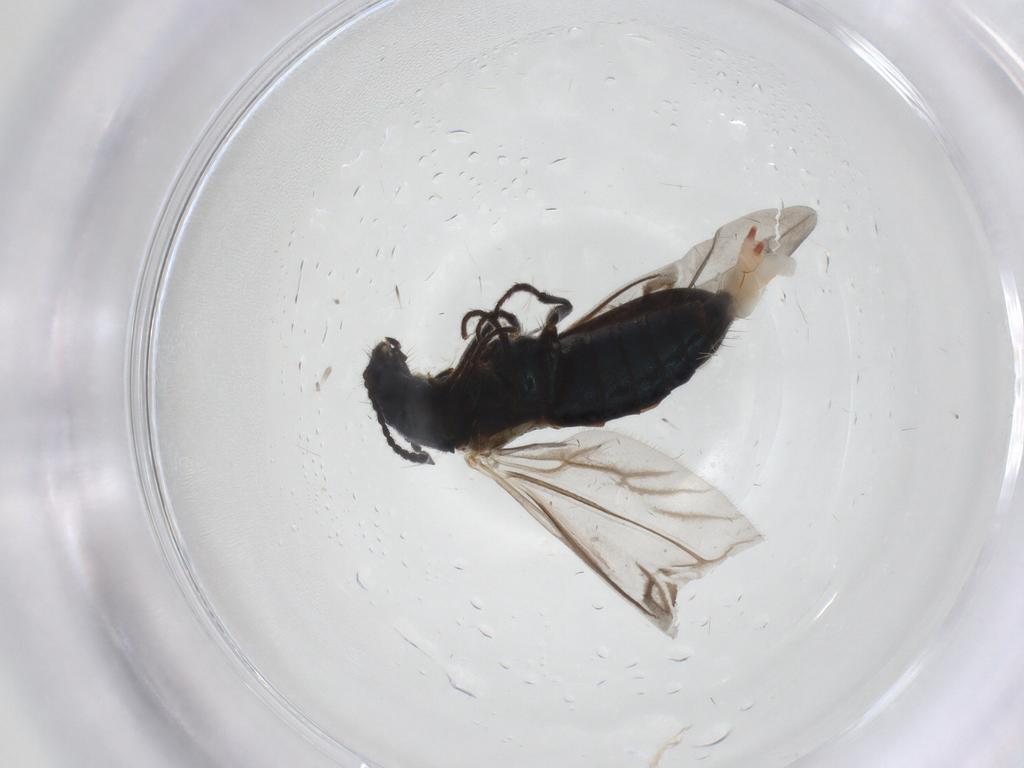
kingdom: Animalia
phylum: Arthropoda
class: Insecta
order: Coleoptera
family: Melyridae
